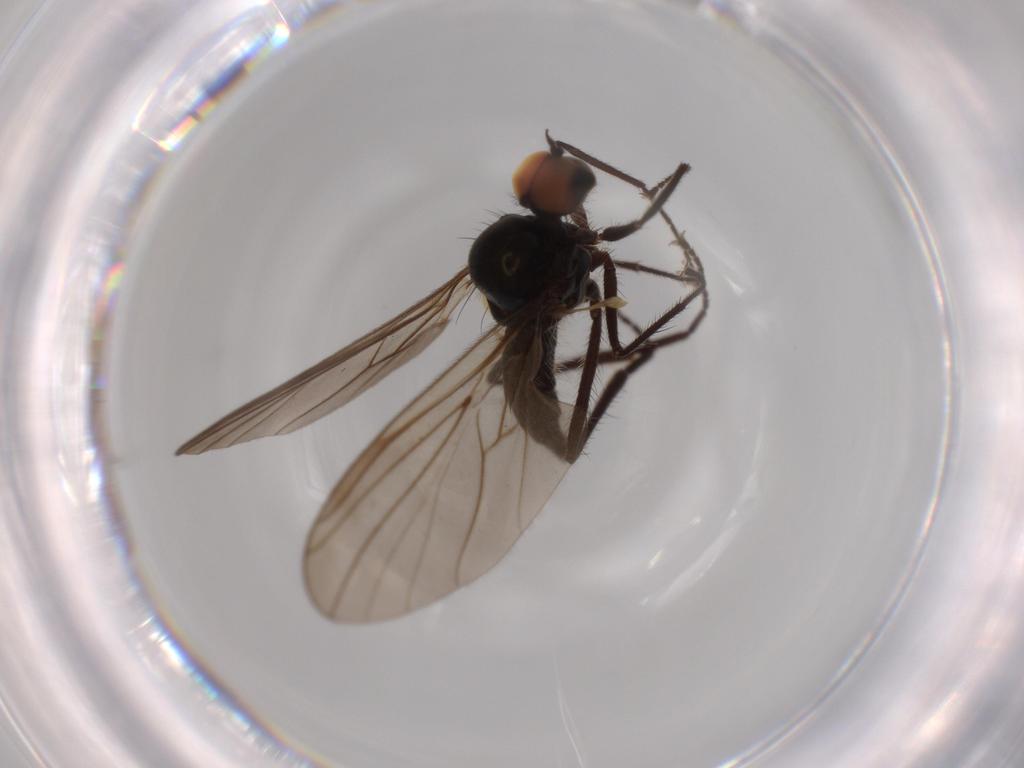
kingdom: Animalia
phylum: Arthropoda
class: Insecta
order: Diptera
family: Hybotidae
